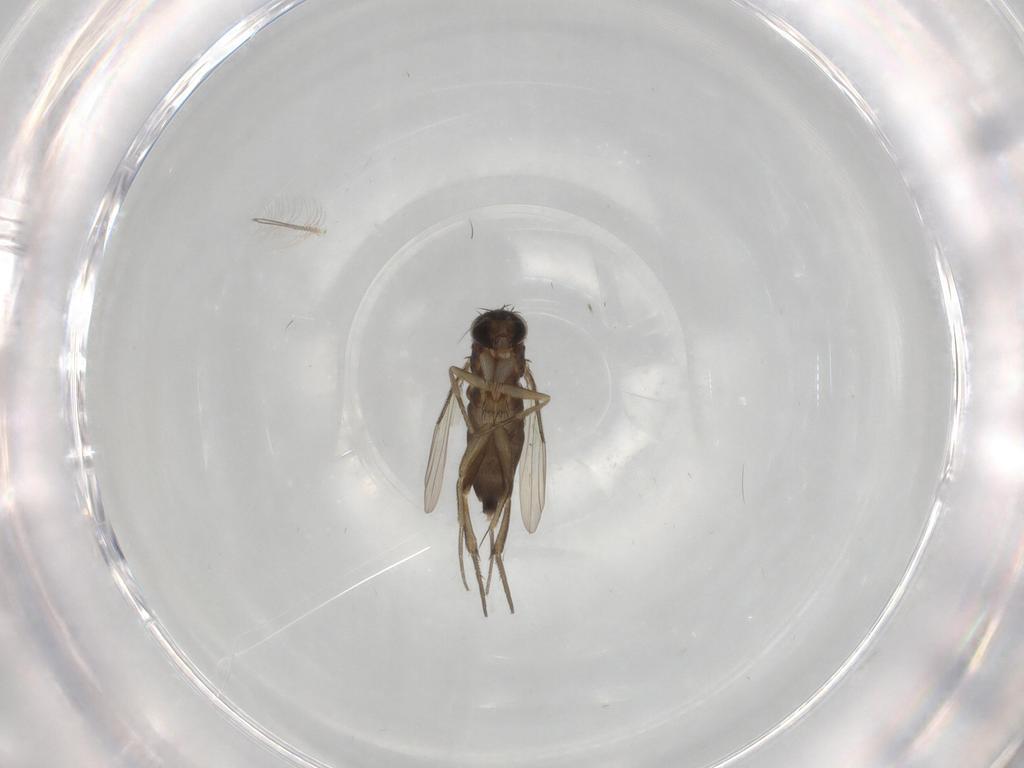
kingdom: Animalia
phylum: Arthropoda
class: Insecta
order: Diptera
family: Phoridae
